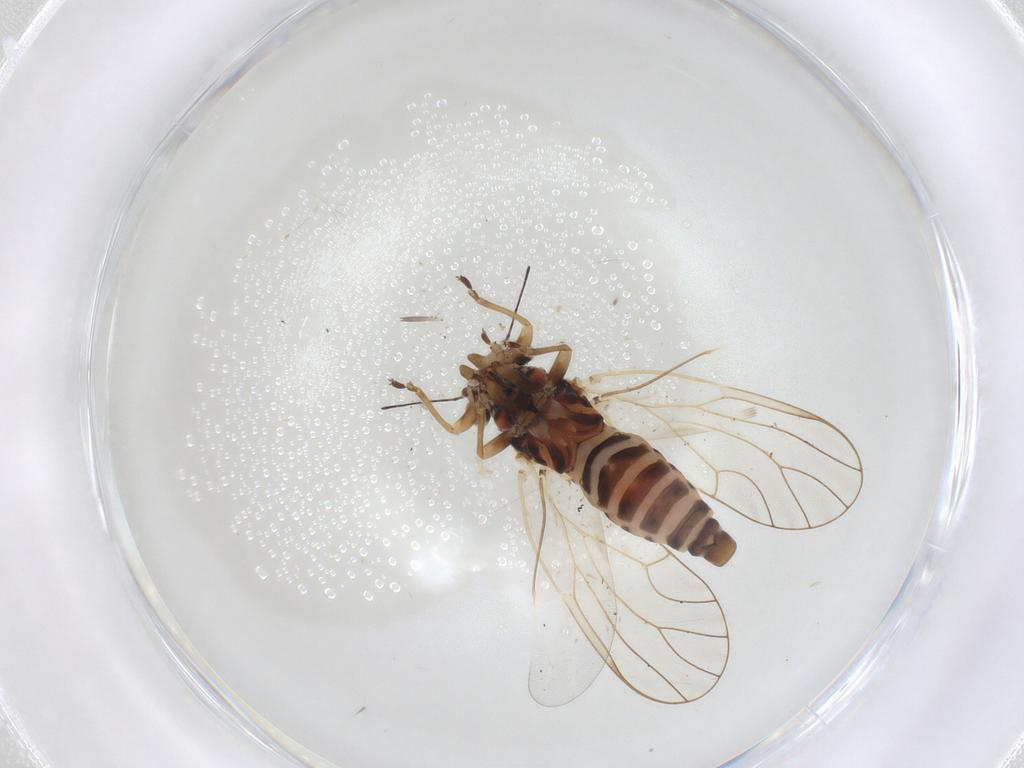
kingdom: Animalia
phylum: Arthropoda
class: Insecta
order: Hemiptera
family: Psyllidae
